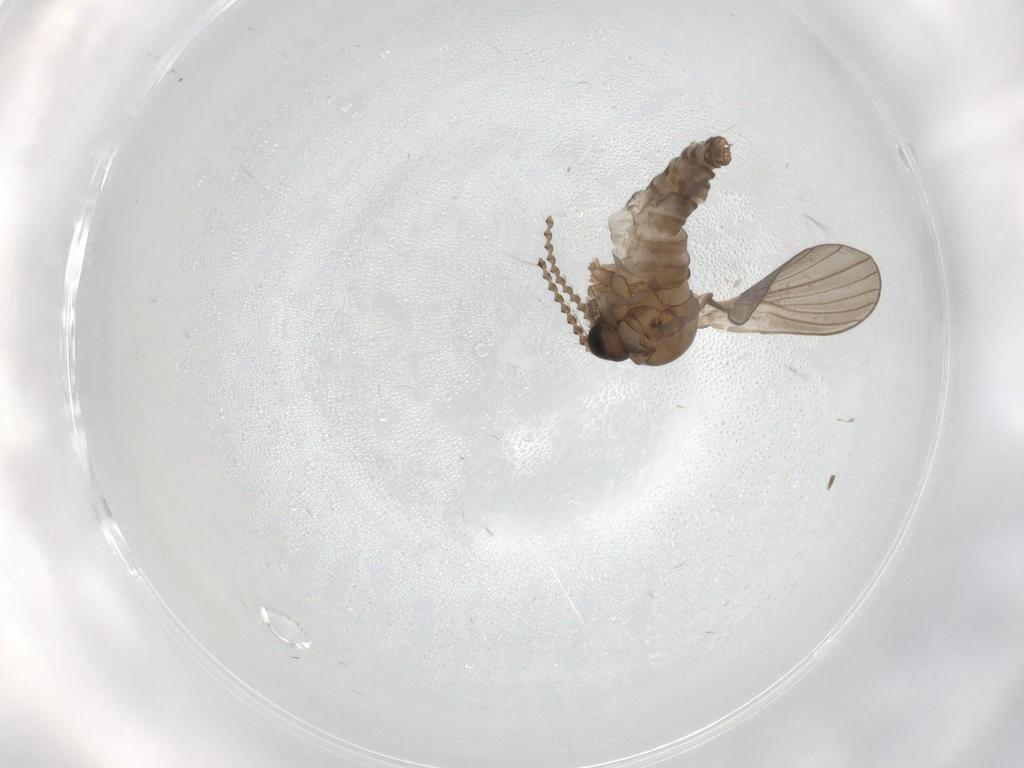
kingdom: Animalia
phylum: Arthropoda
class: Insecta
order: Diptera
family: Psychodidae
